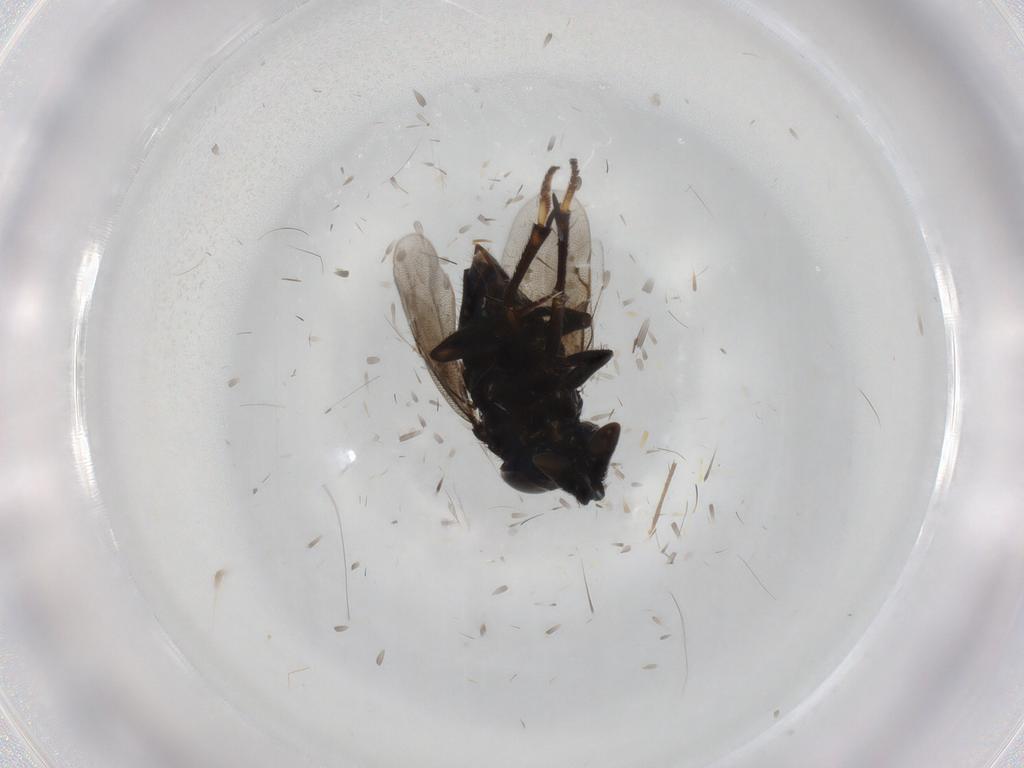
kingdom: Animalia
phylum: Arthropoda
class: Insecta
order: Hymenoptera
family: Encyrtidae
